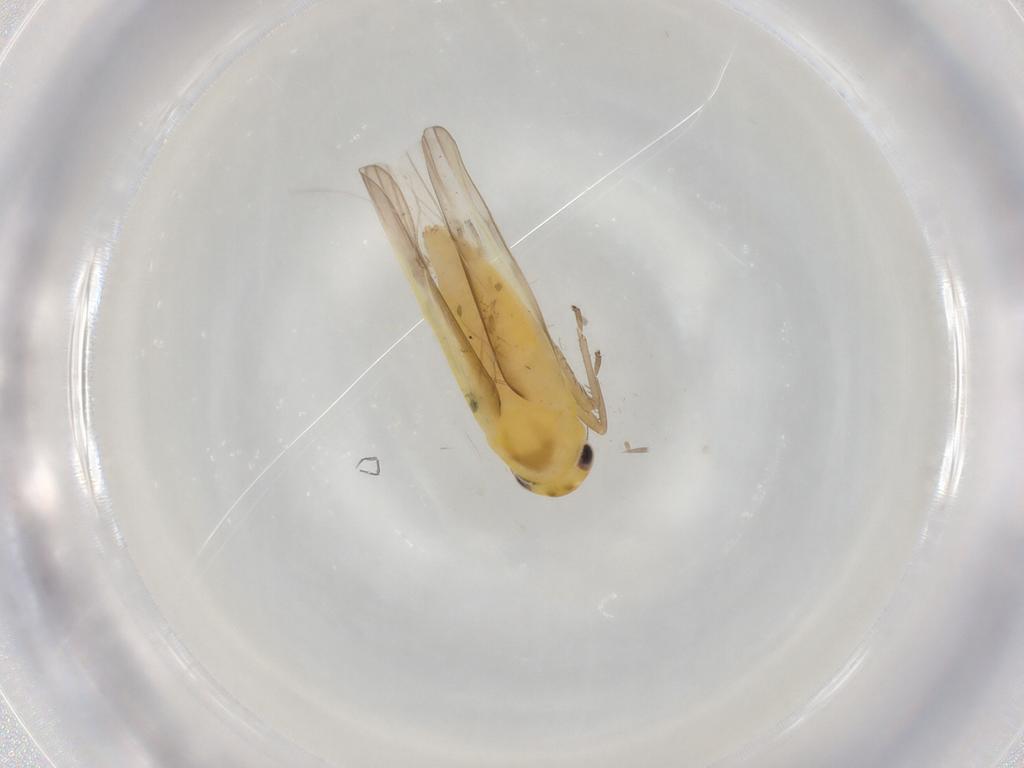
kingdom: Animalia
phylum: Arthropoda
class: Insecta
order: Hemiptera
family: Cicadellidae
